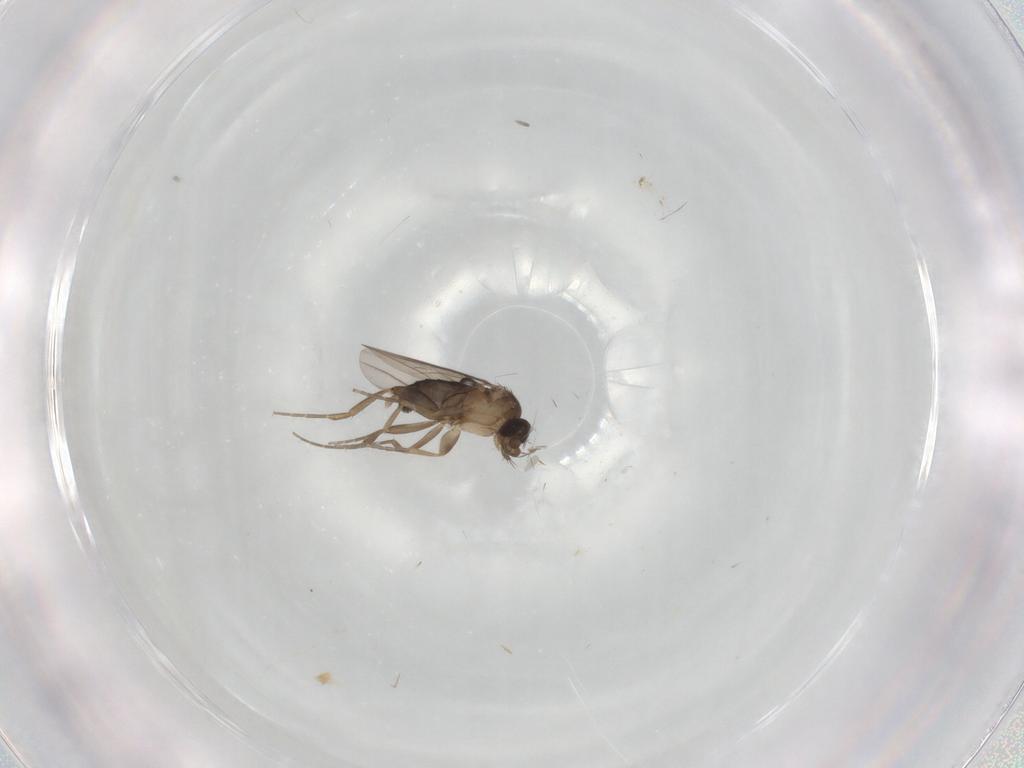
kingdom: Animalia
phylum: Arthropoda
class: Insecta
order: Diptera
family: Phoridae
